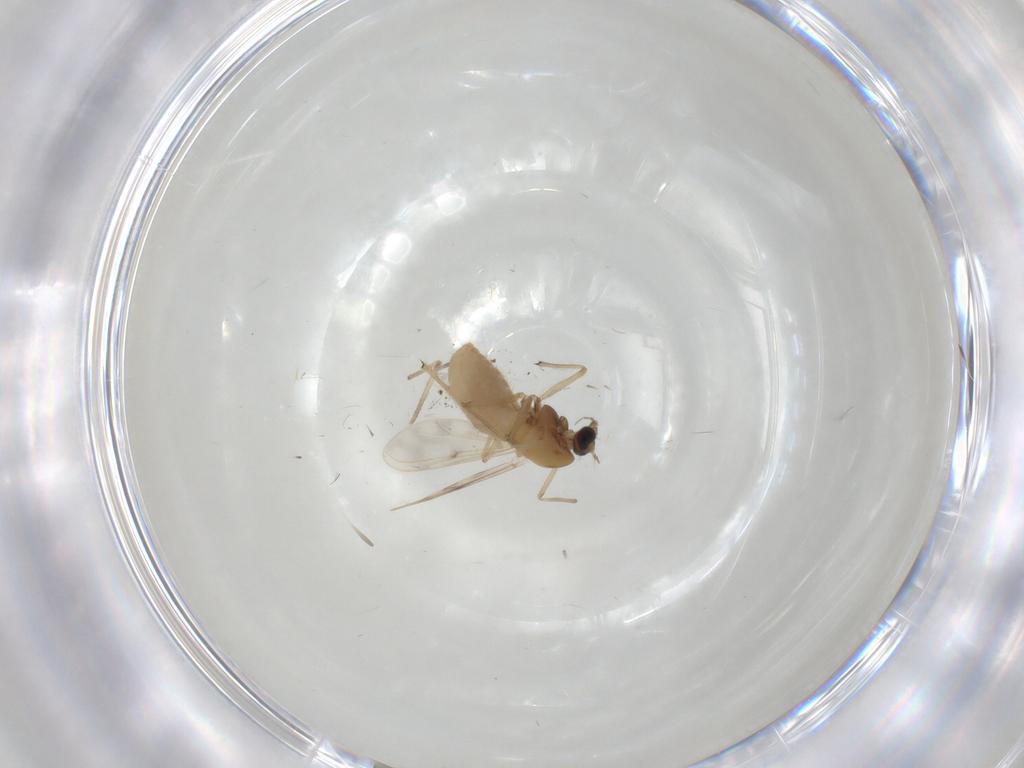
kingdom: Animalia
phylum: Arthropoda
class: Insecta
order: Diptera
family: Chironomidae
